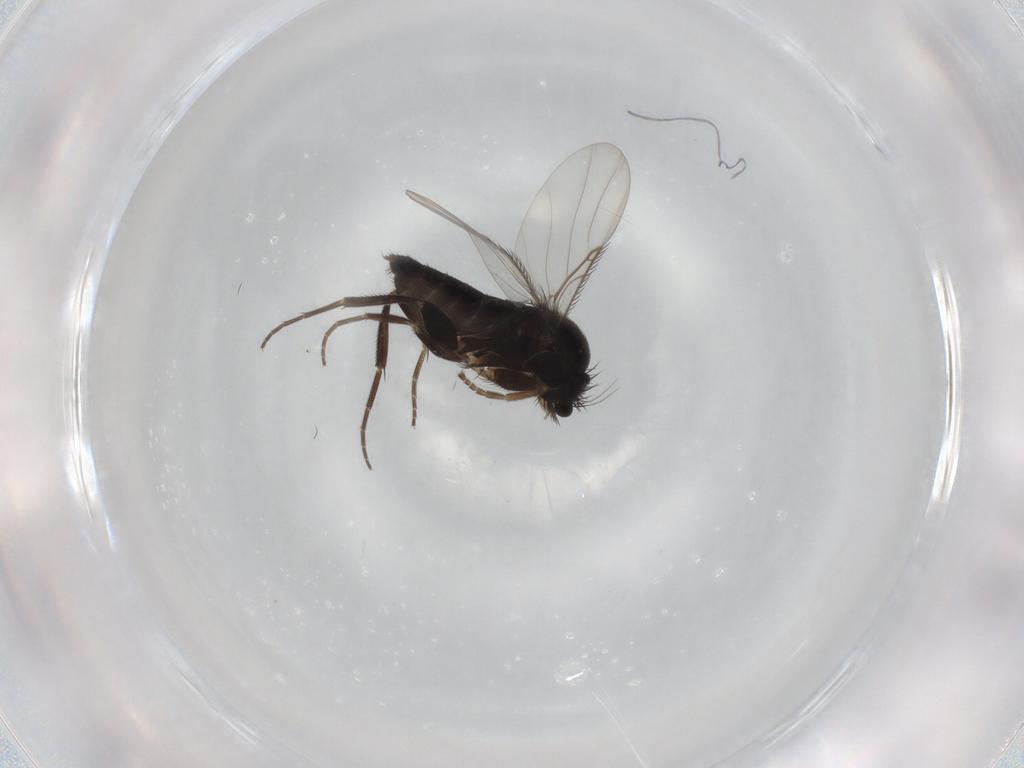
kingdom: Animalia
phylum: Arthropoda
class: Insecta
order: Diptera
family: Phoridae
